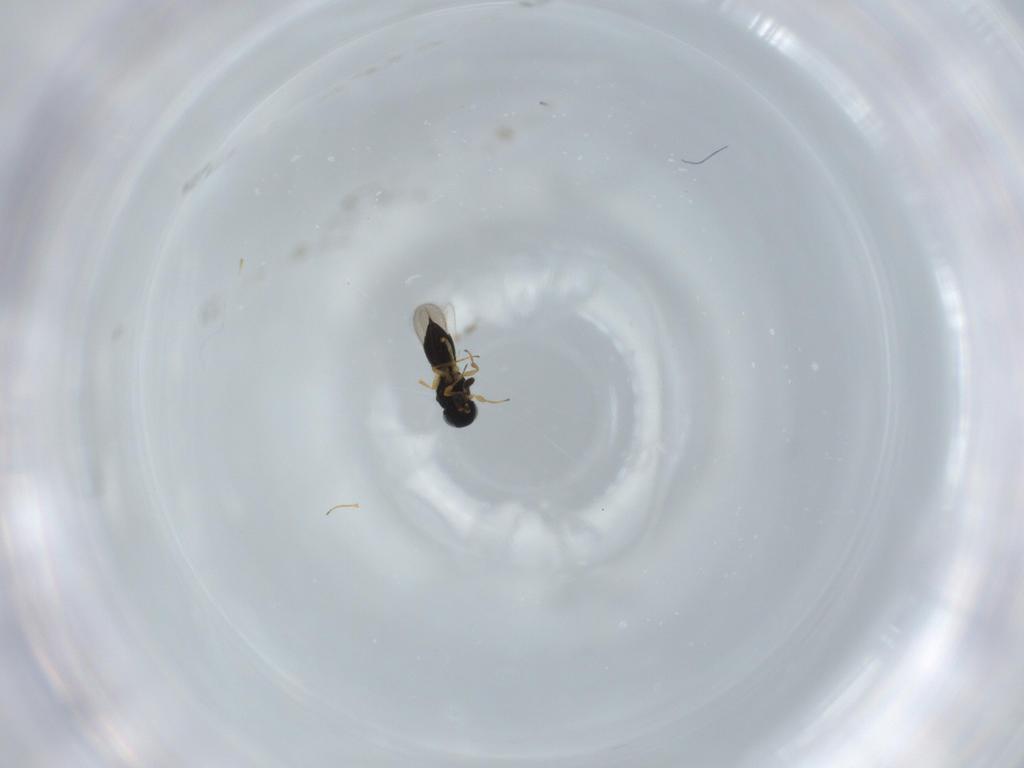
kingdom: Animalia
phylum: Arthropoda
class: Insecta
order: Hymenoptera
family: Scelionidae
